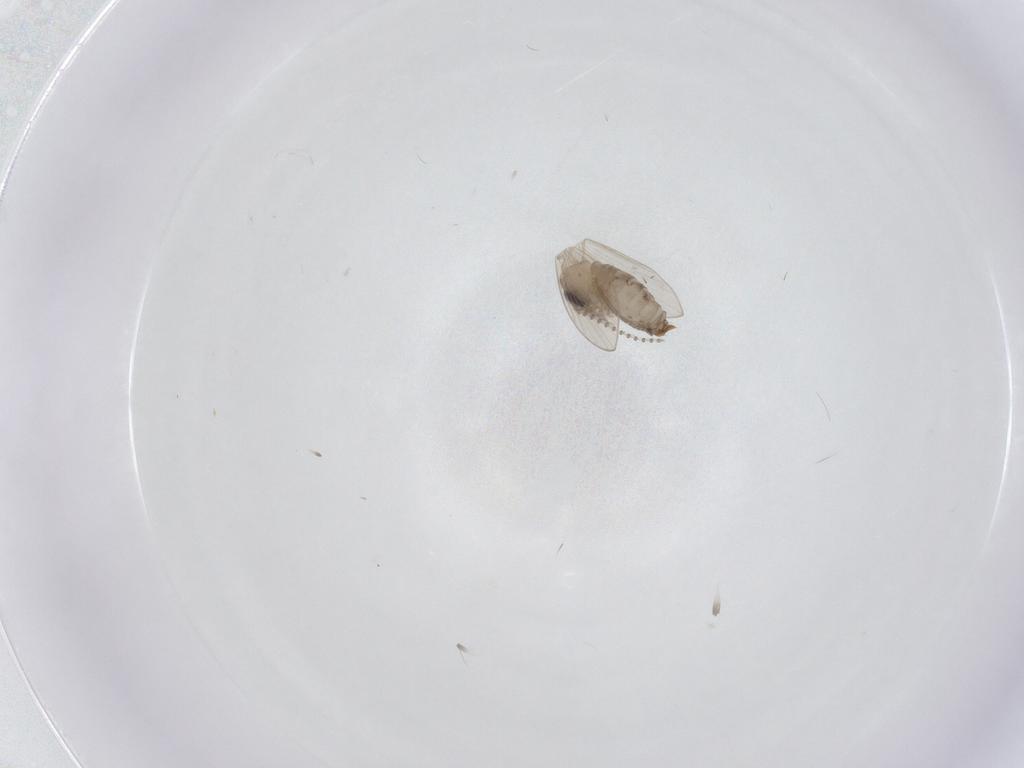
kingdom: Animalia
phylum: Arthropoda
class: Insecta
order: Diptera
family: Psychodidae
